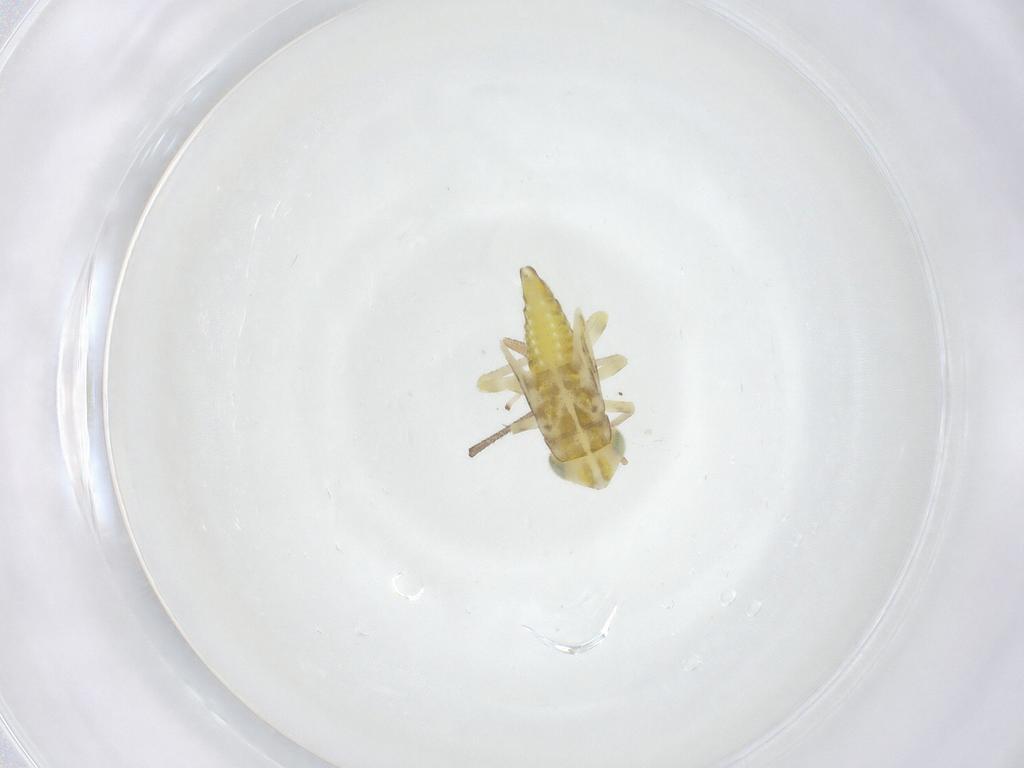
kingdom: Animalia
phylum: Arthropoda
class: Insecta
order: Hemiptera
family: Cicadellidae
